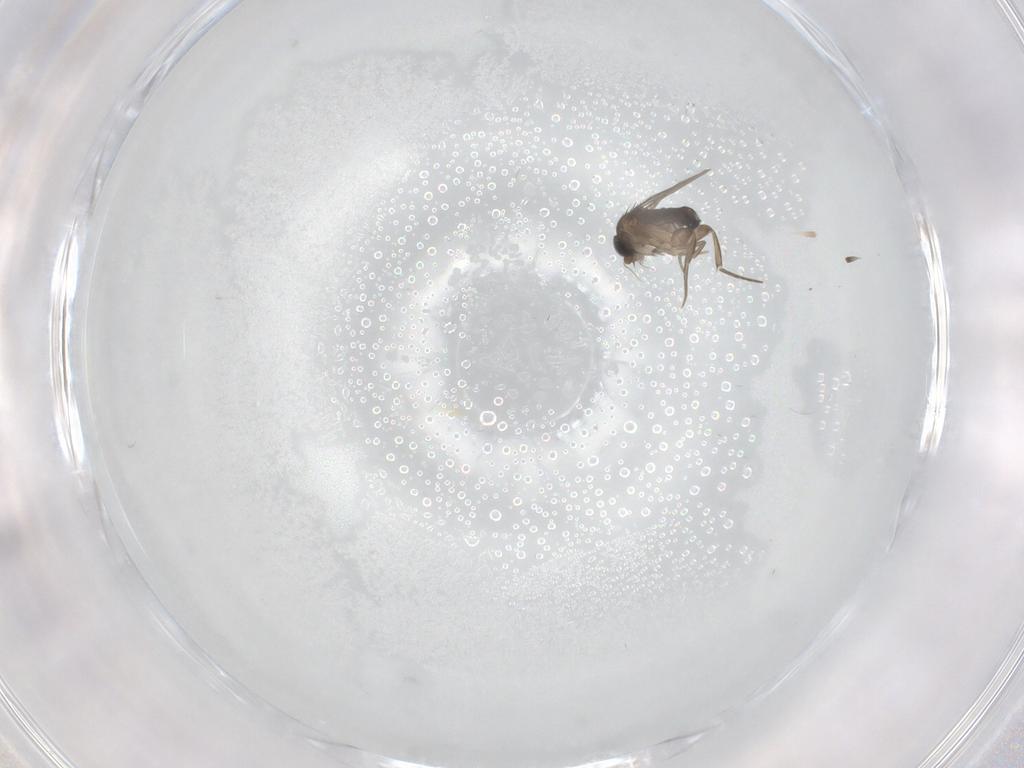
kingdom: Animalia
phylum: Arthropoda
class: Insecta
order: Diptera
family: Phoridae
